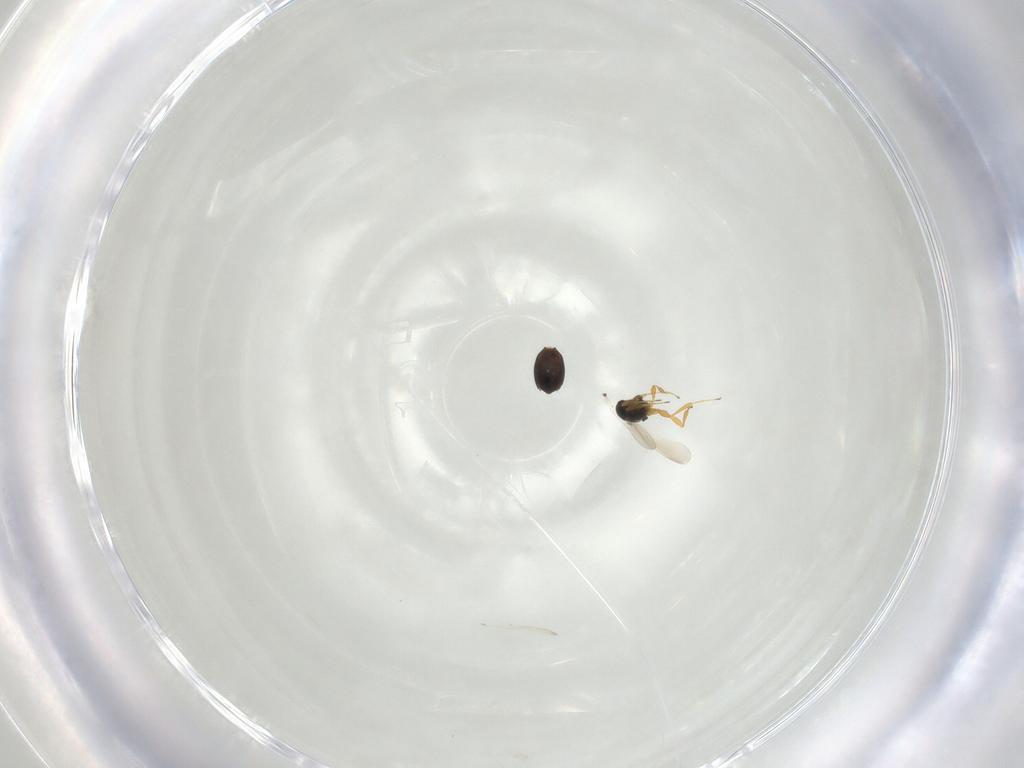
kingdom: Animalia
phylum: Arthropoda
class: Insecta
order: Hymenoptera
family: Platygastridae
